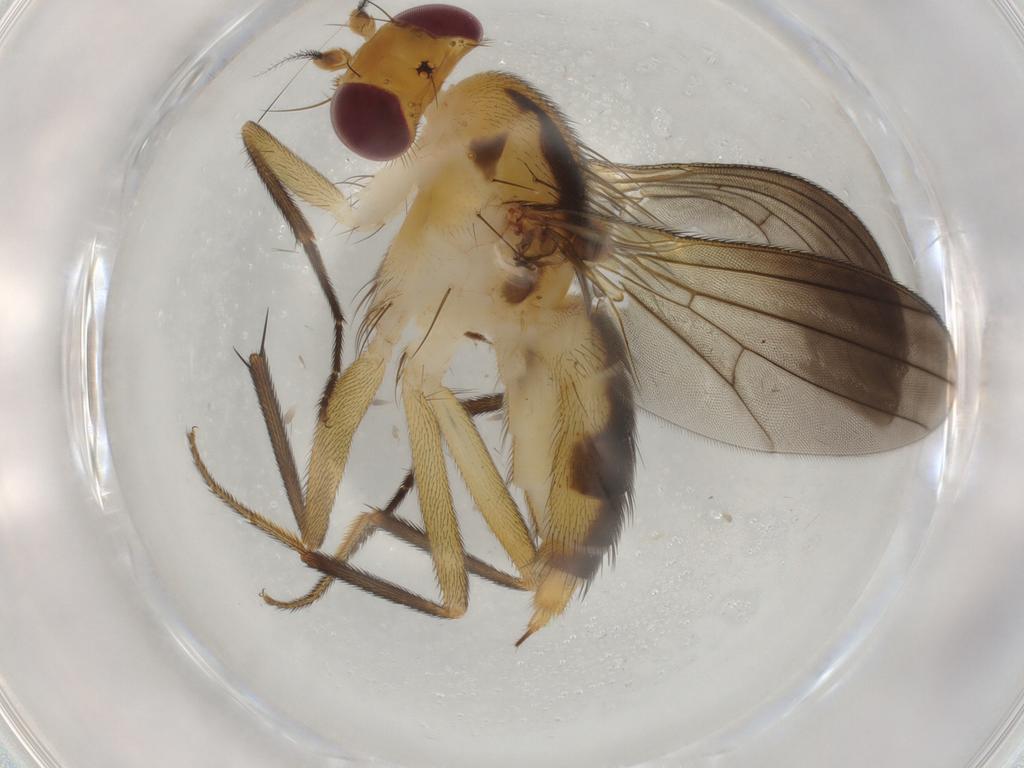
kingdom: Animalia
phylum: Arthropoda
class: Insecta
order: Diptera
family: Clusiidae
